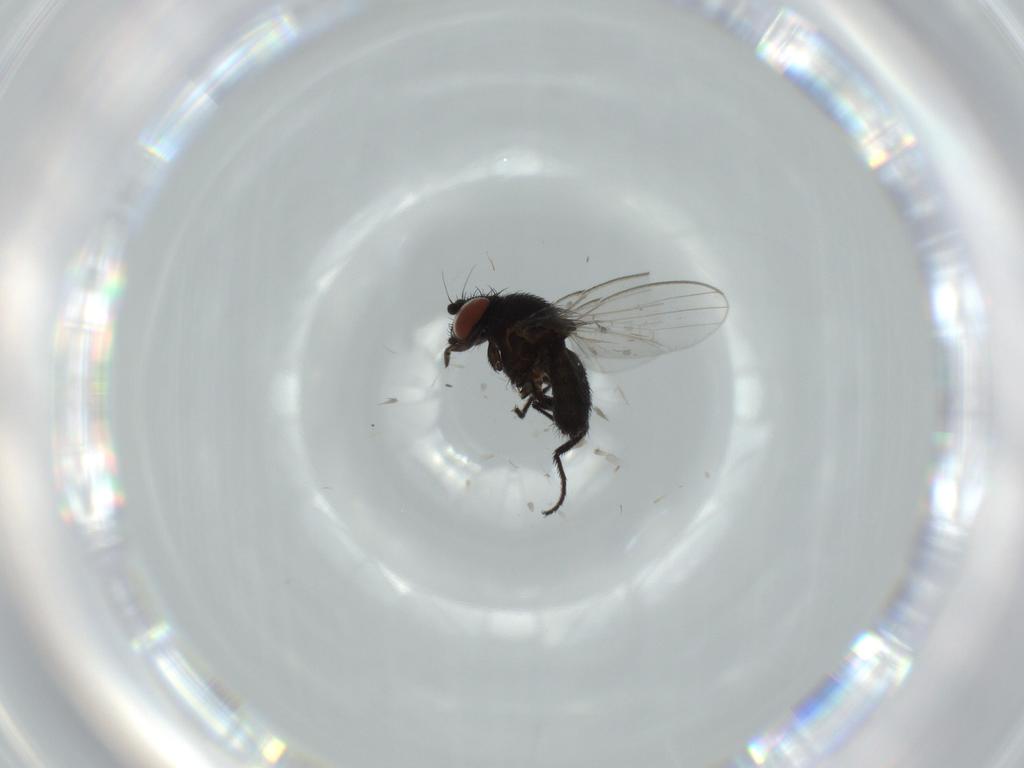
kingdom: Animalia
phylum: Arthropoda
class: Insecta
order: Diptera
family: Milichiidae
